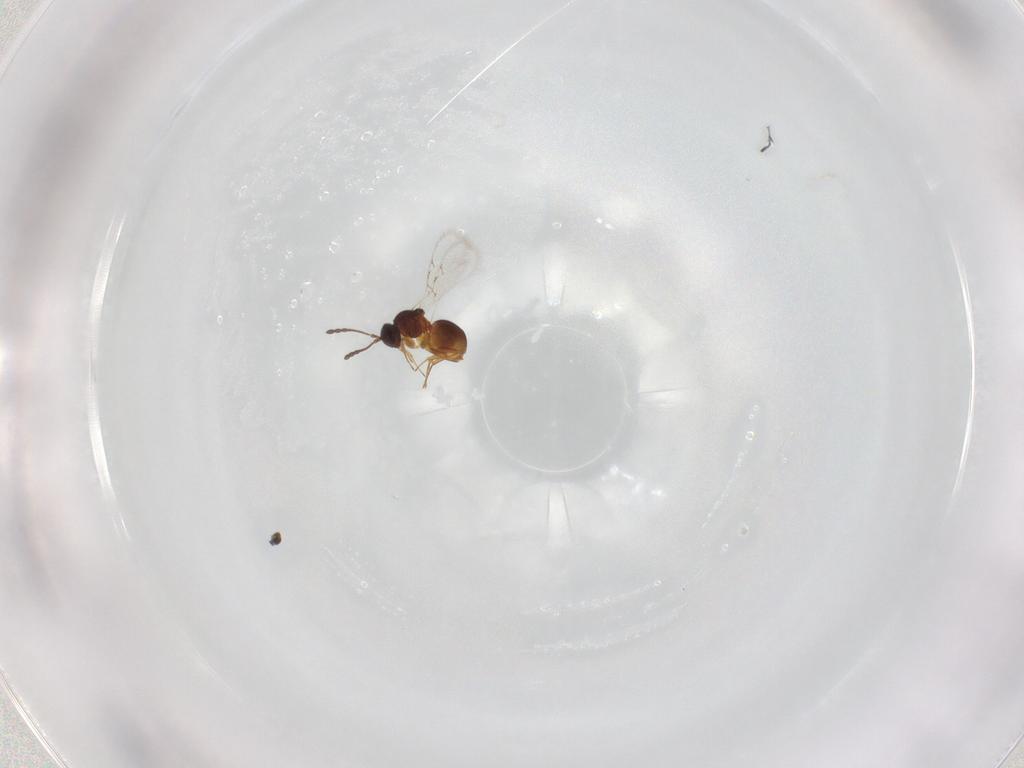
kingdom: Animalia
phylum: Arthropoda
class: Insecta
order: Hymenoptera
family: Figitidae
